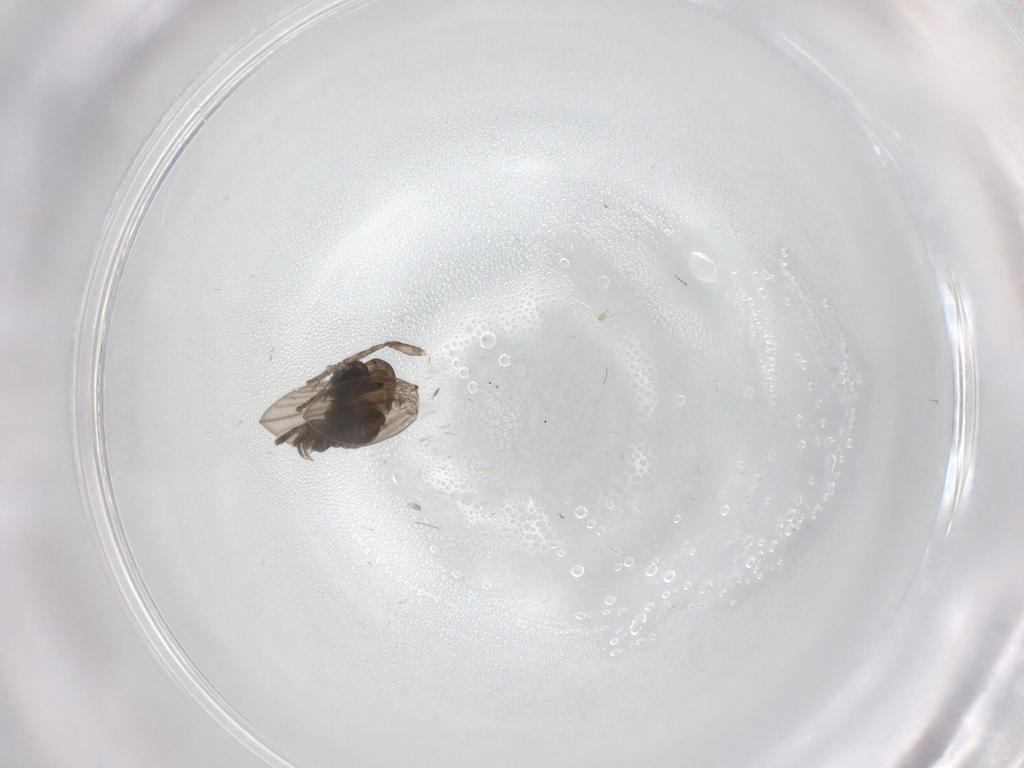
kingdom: Animalia
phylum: Arthropoda
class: Insecta
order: Diptera
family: Psychodidae
